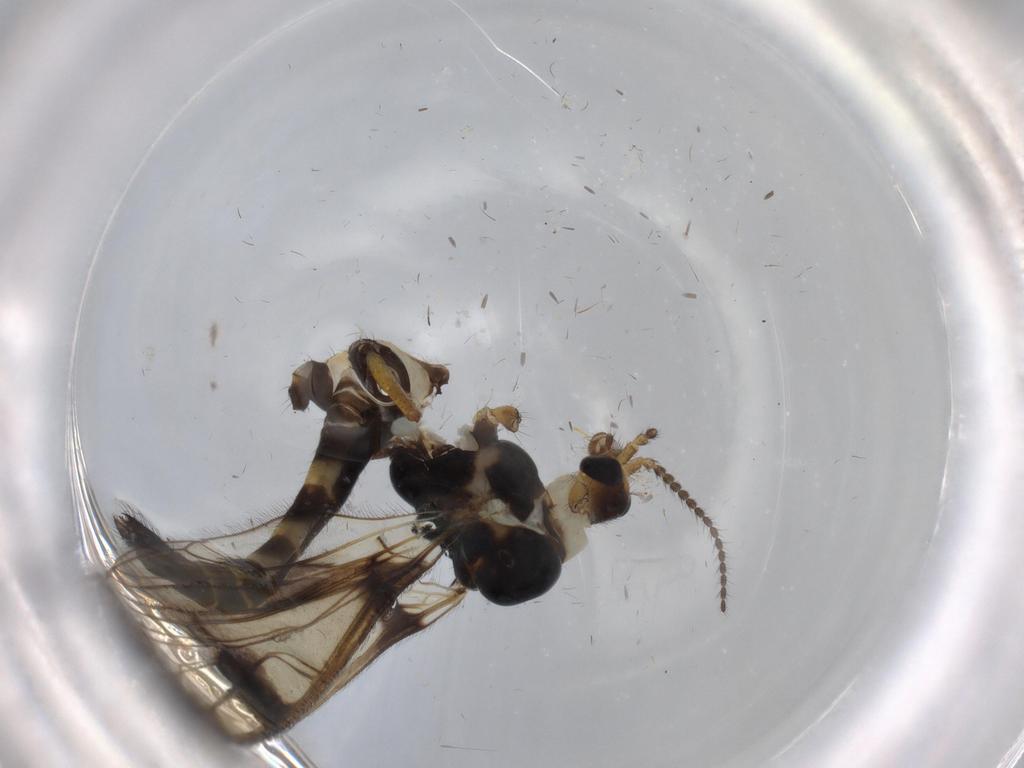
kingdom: Animalia
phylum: Arthropoda
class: Insecta
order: Diptera
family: Limoniidae
